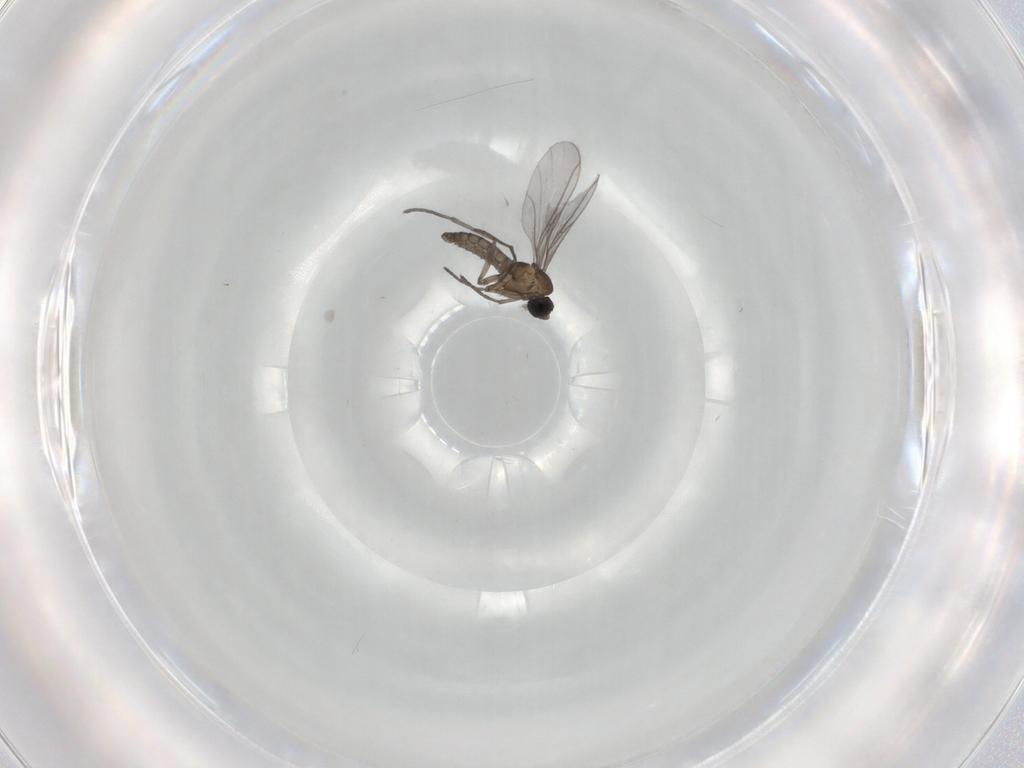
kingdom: Animalia
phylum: Arthropoda
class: Insecta
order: Diptera
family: Sciaridae
